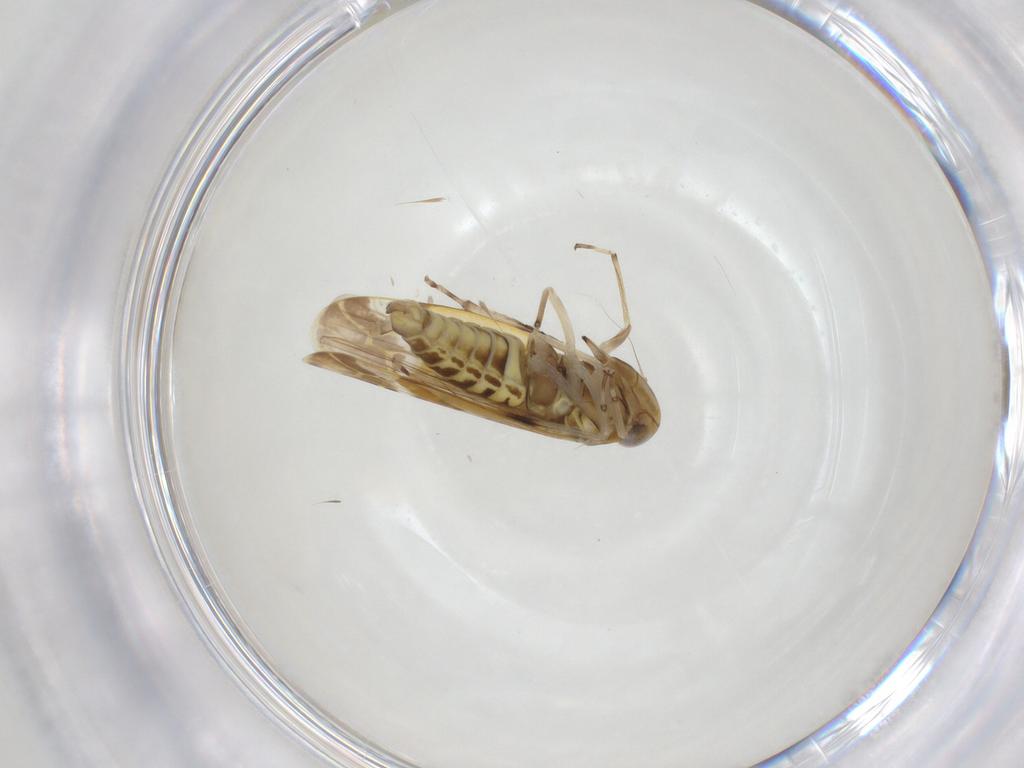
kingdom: Animalia
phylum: Arthropoda
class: Insecta
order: Hemiptera
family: Cicadellidae
